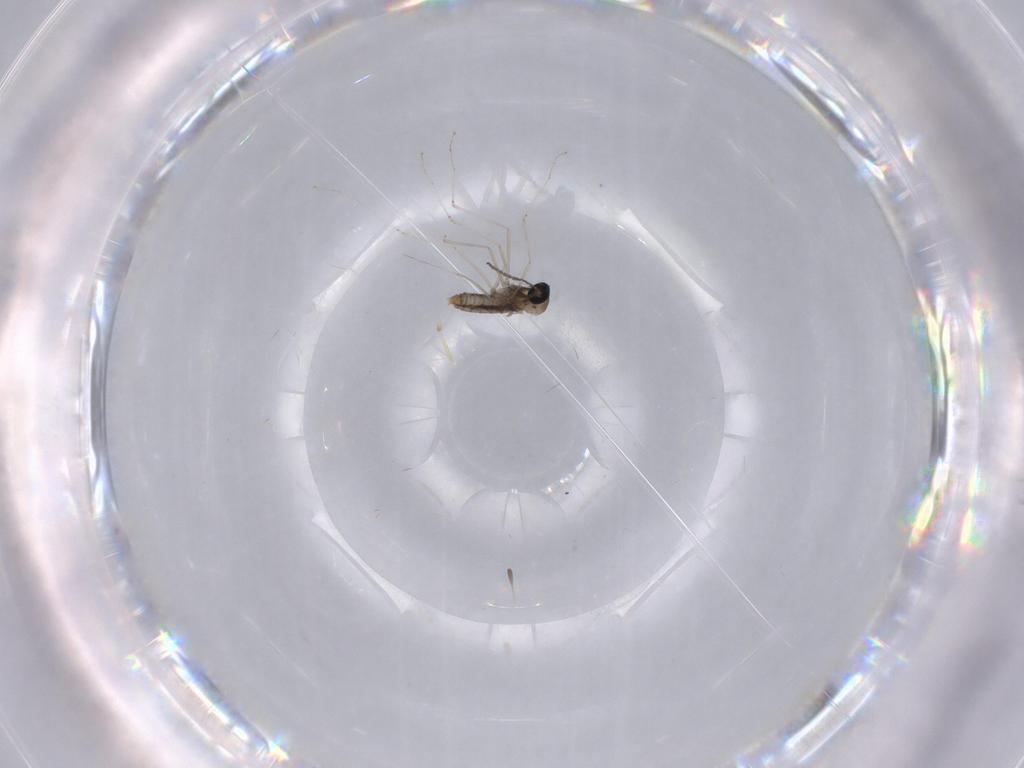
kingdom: Animalia
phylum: Arthropoda
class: Insecta
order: Diptera
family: Cecidomyiidae
